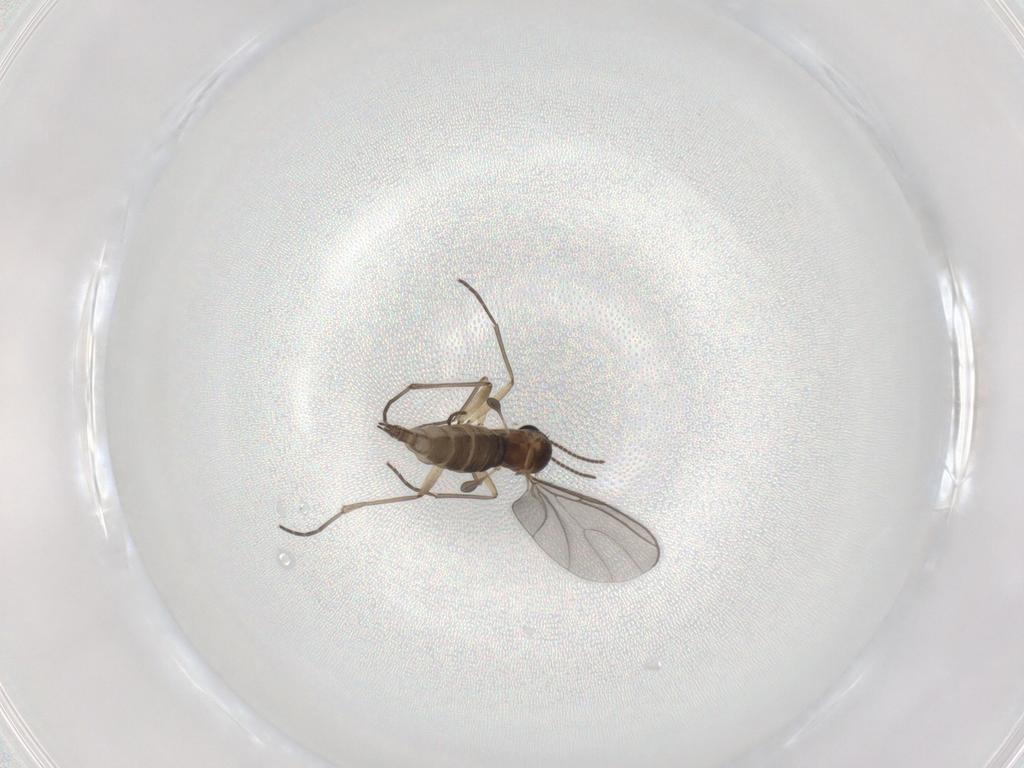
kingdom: Animalia
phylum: Arthropoda
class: Insecta
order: Diptera
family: Sciaridae
